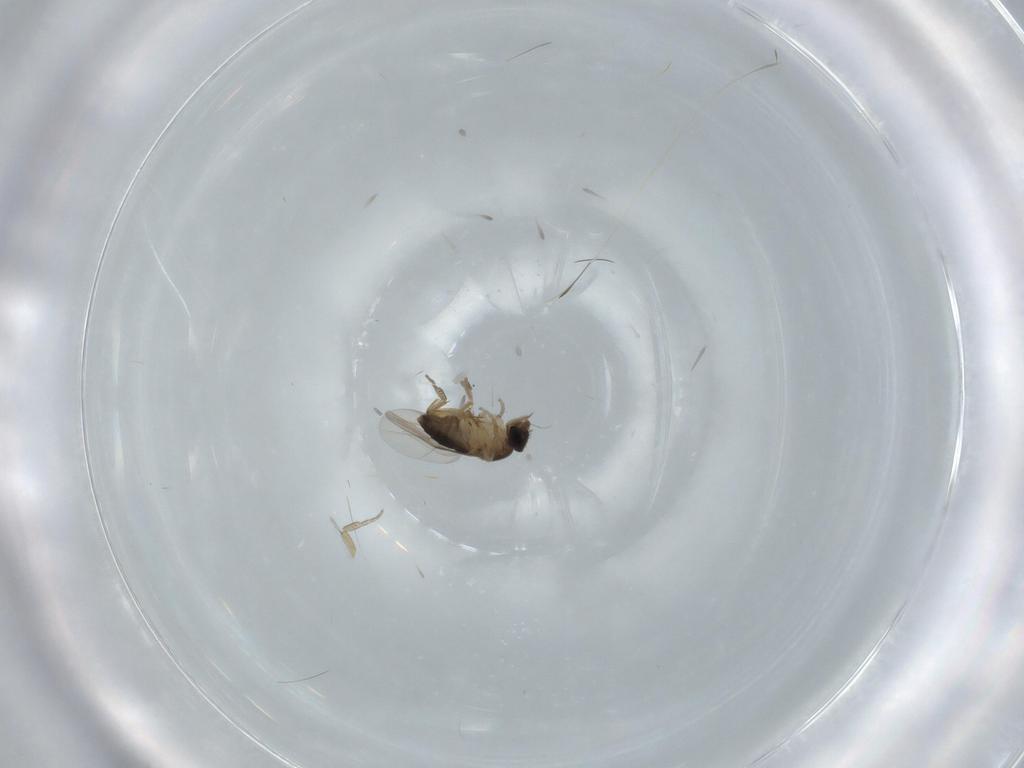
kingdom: Animalia
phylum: Arthropoda
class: Insecta
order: Diptera
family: Phoridae
